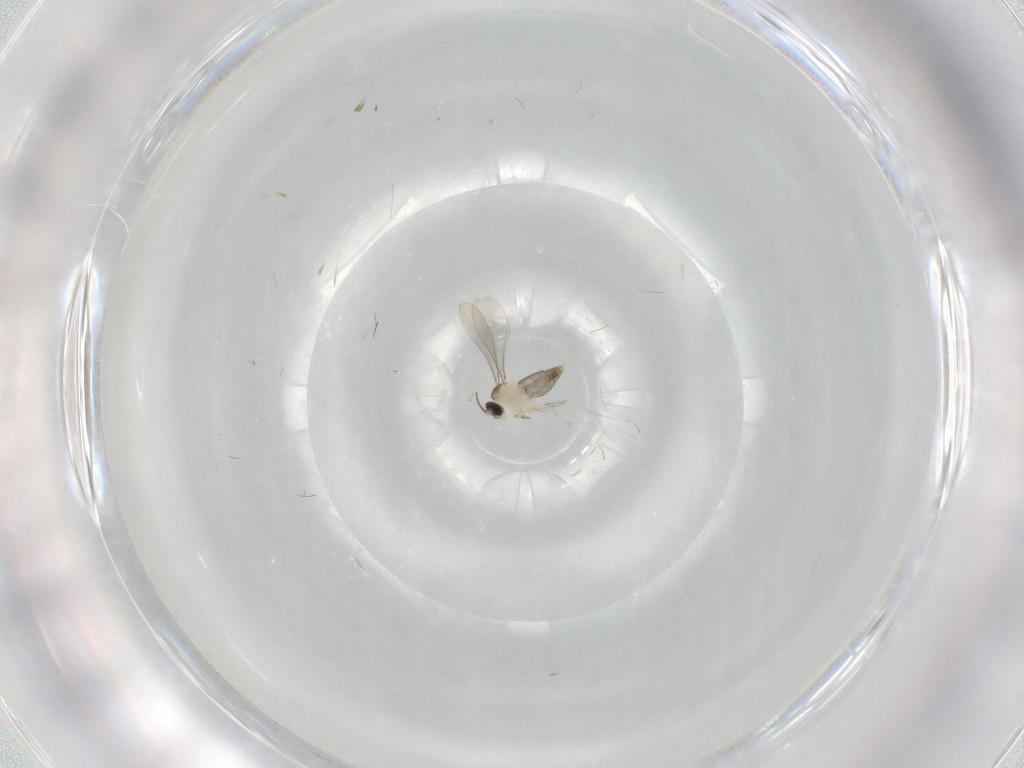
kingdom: Animalia
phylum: Arthropoda
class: Insecta
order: Diptera
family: Cecidomyiidae
